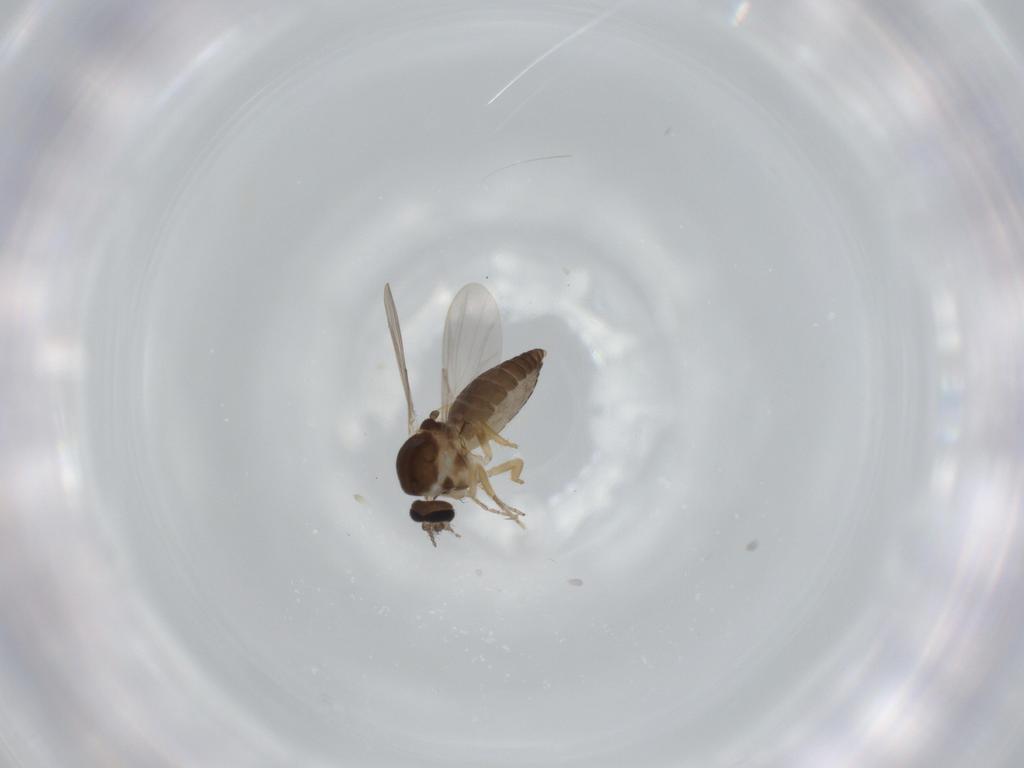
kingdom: Animalia
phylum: Arthropoda
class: Insecta
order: Diptera
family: Ceratopogonidae
